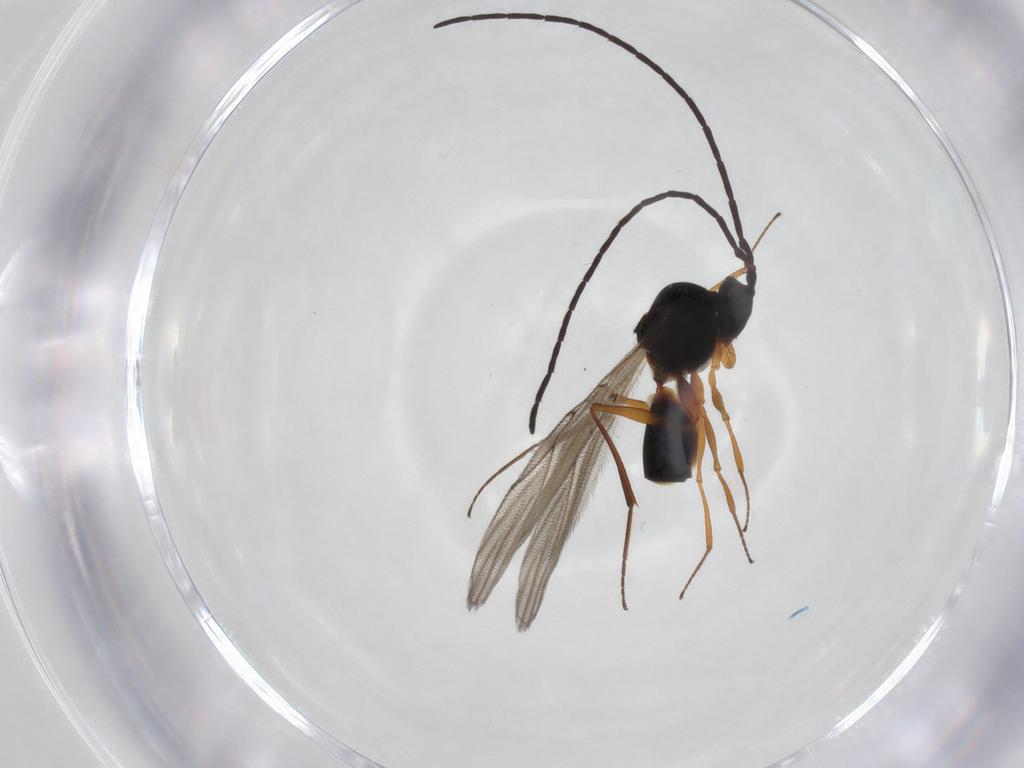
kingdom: Animalia
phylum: Arthropoda
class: Insecta
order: Hymenoptera
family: Figitidae
